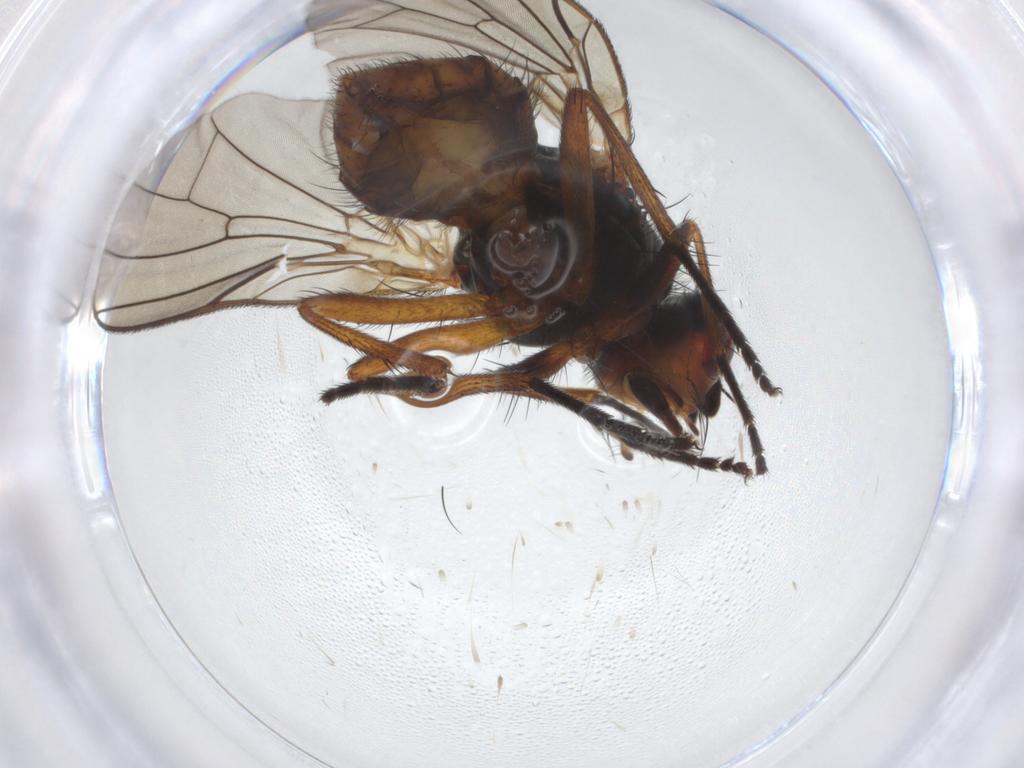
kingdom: Animalia
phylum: Arthropoda
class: Insecta
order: Diptera
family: Anthomyiidae
